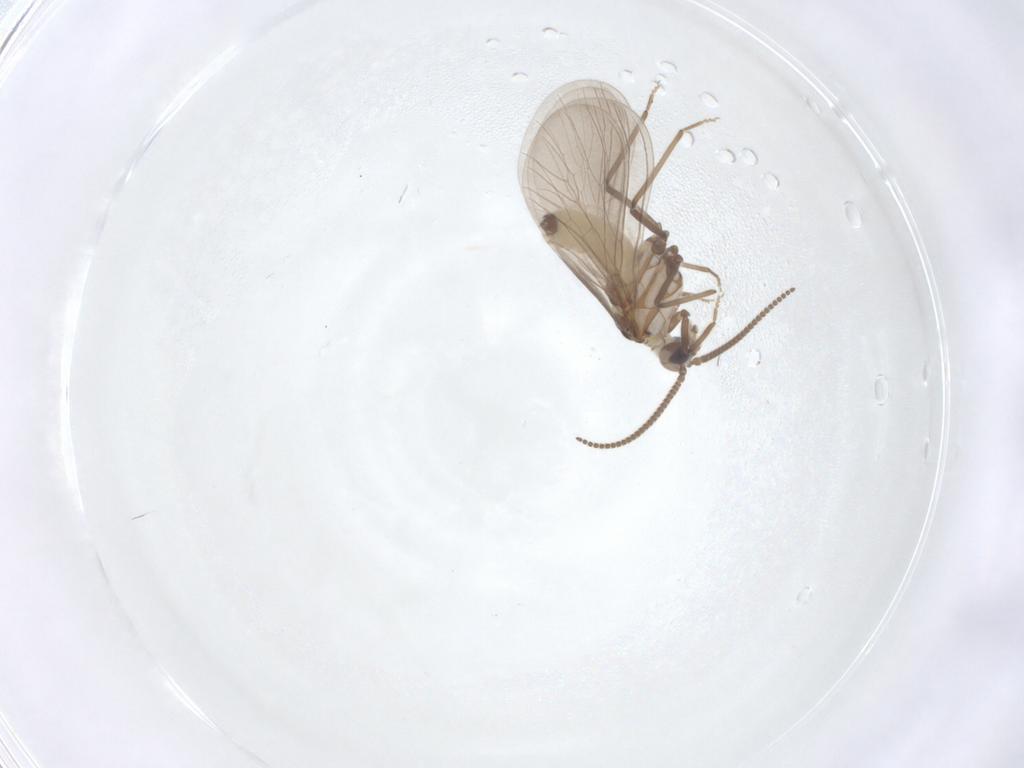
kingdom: Animalia
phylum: Arthropoda
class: Insecta
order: Neuroptera
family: Coniopterygidae
